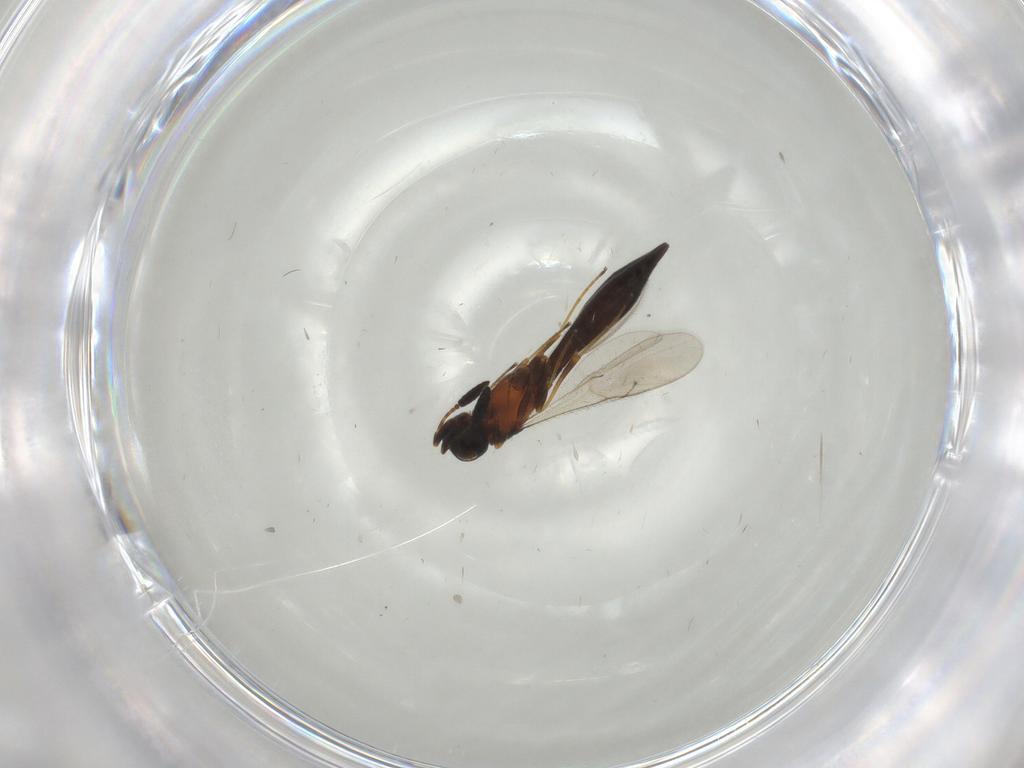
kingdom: Animalia
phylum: Arthropoda
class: Insecta
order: Hymenoptera
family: Scelionidae
